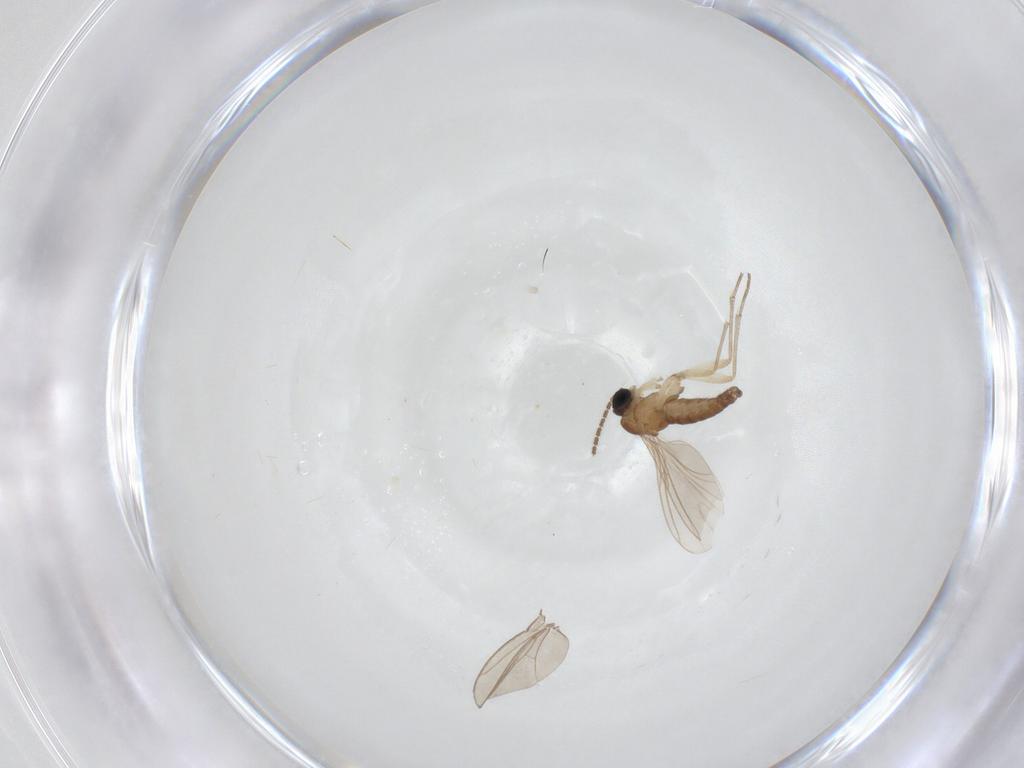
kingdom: Animalia
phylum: Arthropoda
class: Insecta
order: Diptera
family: Sciaridae
